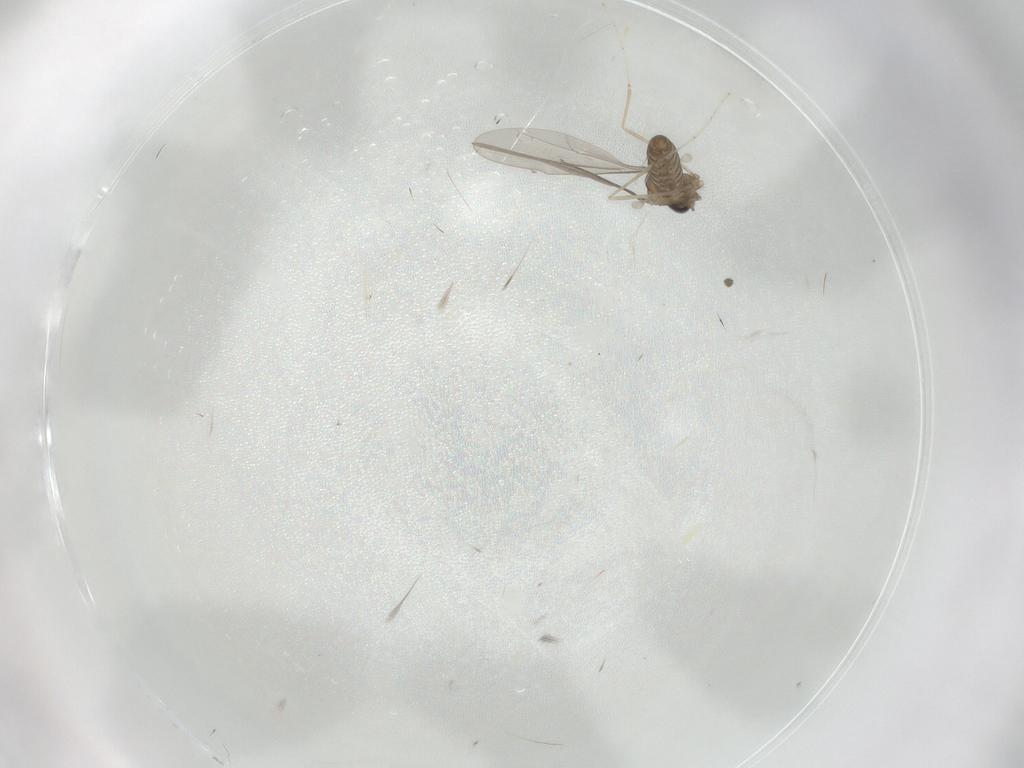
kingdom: Animalia
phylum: Arthropoda
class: Insecta
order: Diptera
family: Cecidomyiidae
